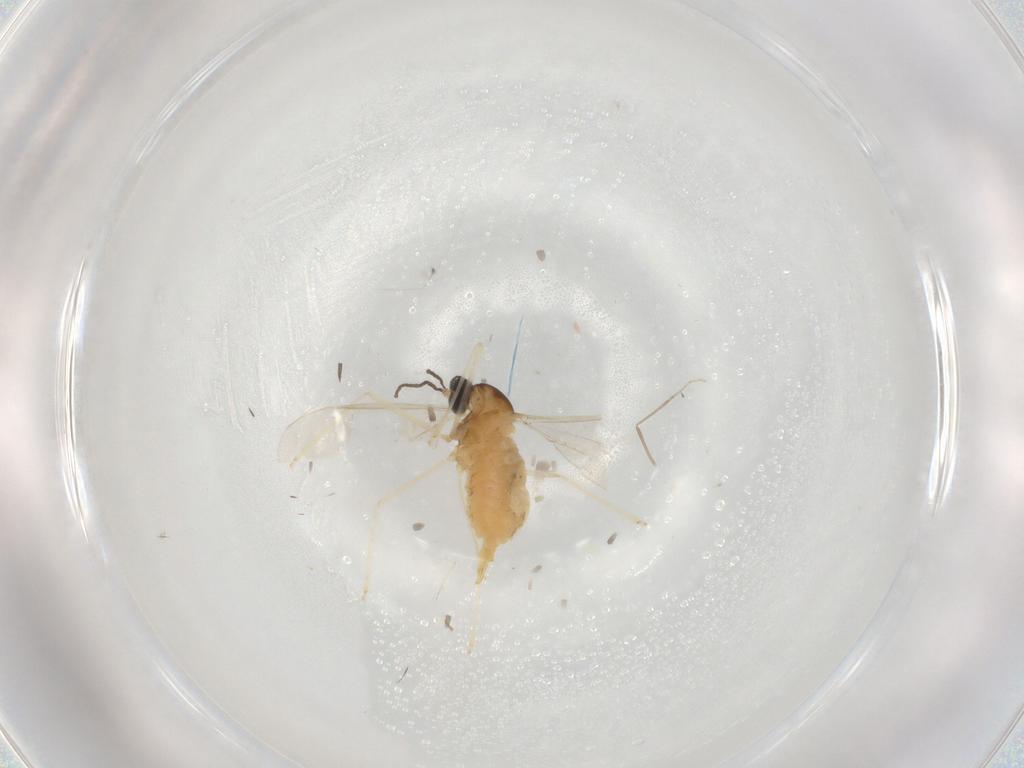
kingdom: Animalia
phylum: Arthropoda
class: Insecta
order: Diptera
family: Cecidomyiidae
